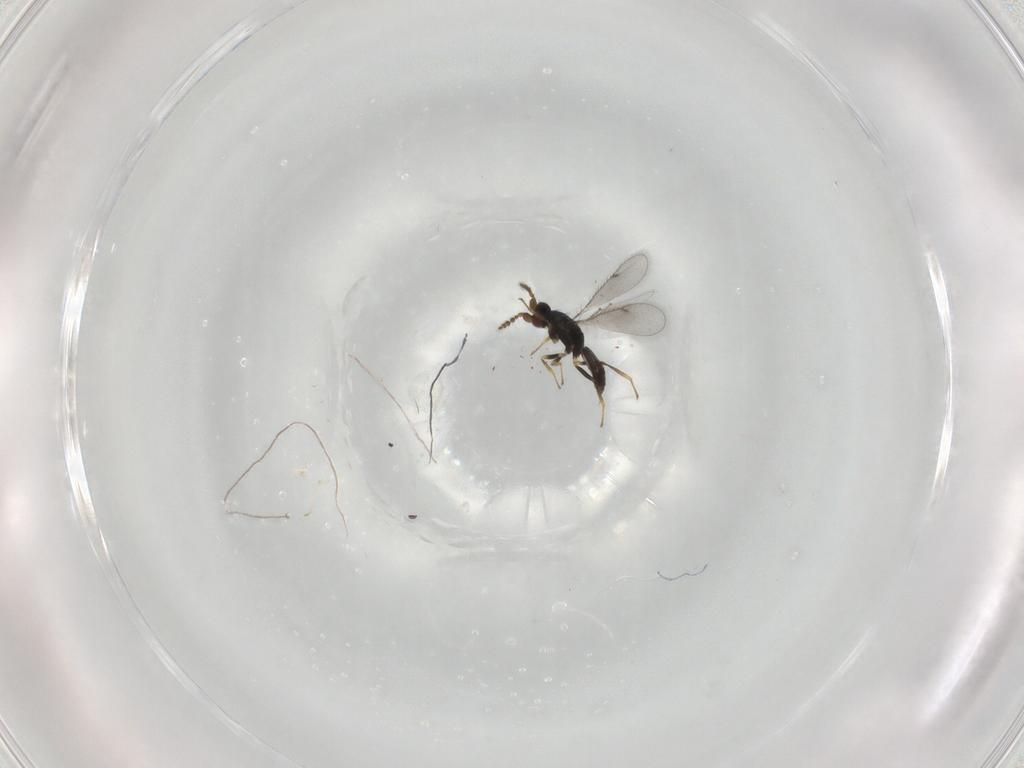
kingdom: Animalia
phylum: Arthropoda
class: Insecta
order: Hymenoptera
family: Eulophidae
